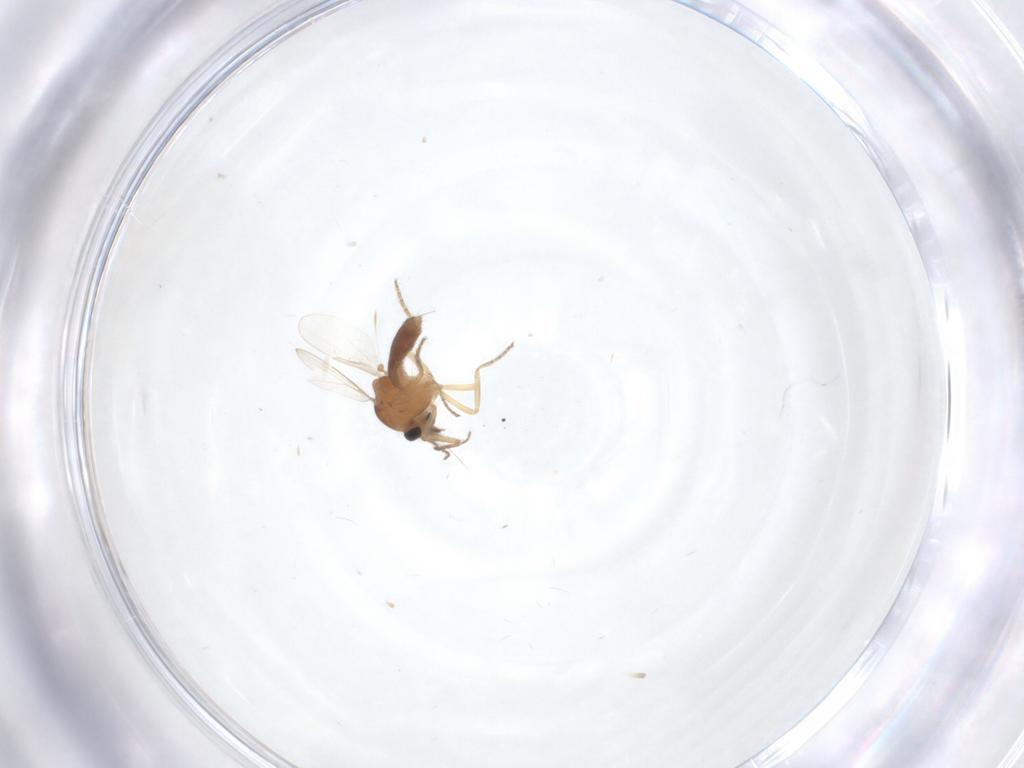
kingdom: Animalia
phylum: Arthropoda
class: Insecta
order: Diptera
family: Ceratopogonidae
